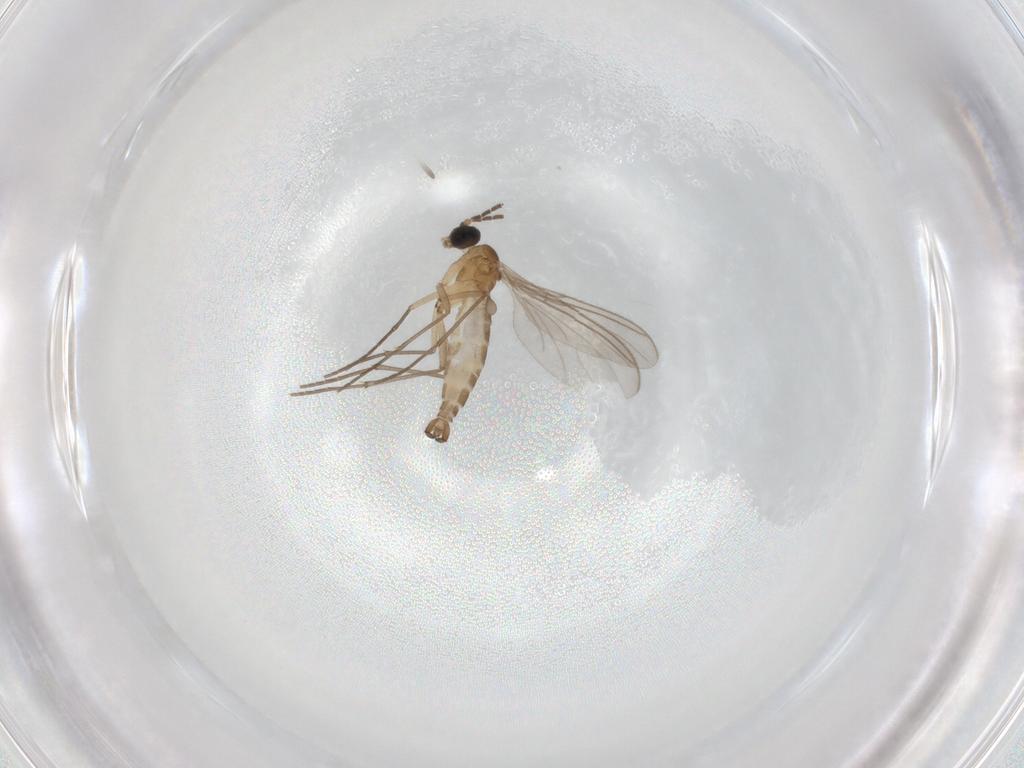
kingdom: Animalia
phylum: Arthropoda
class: Insecta
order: Diptera
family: Sciaridae
